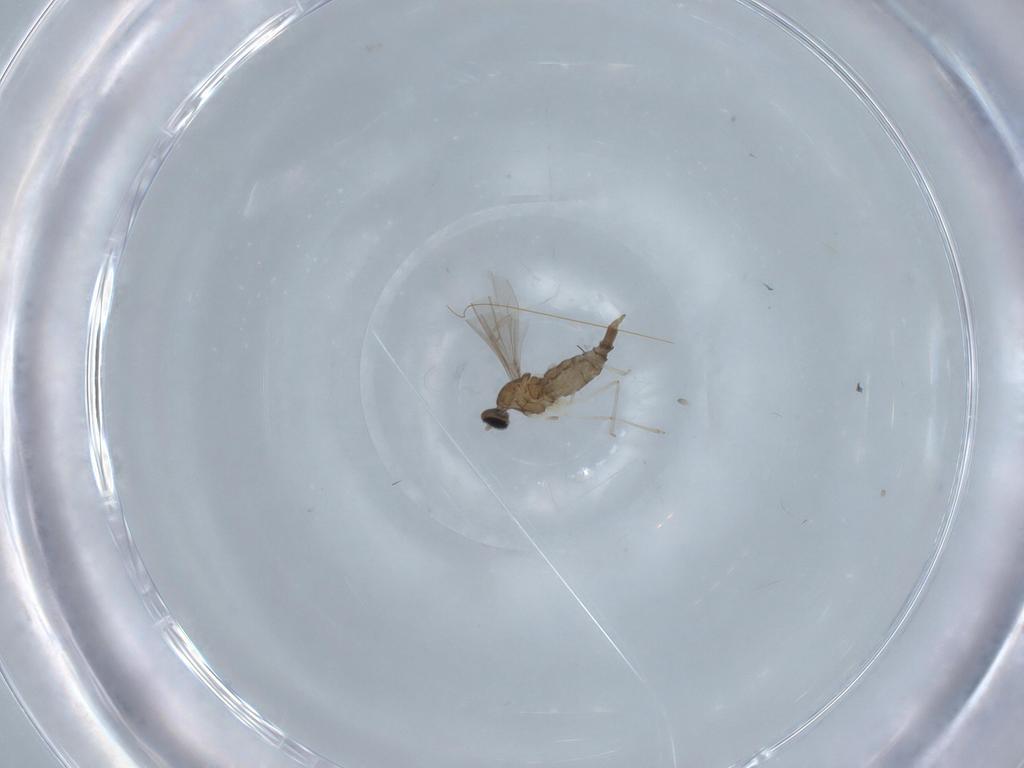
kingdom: Animalia
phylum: Arthropoda
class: Insecta
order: Diptera
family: Cecidomyiidae
